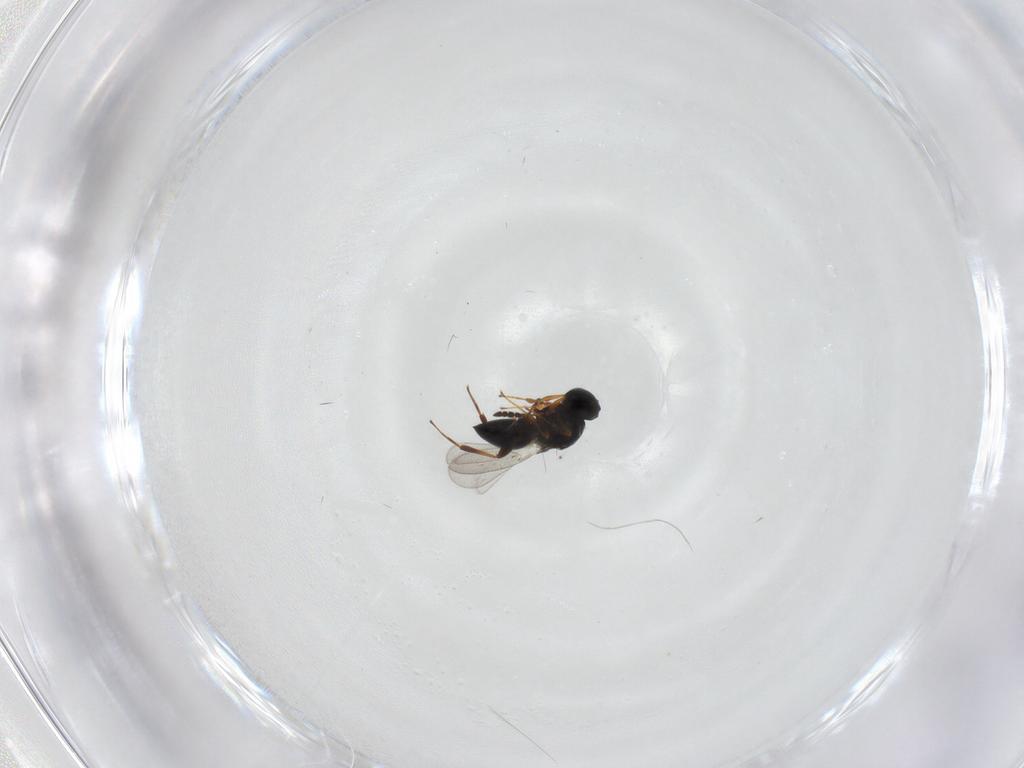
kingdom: Animalia
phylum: Arthropoda
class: Insecta
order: Hymenoptera
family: Platygastridae
